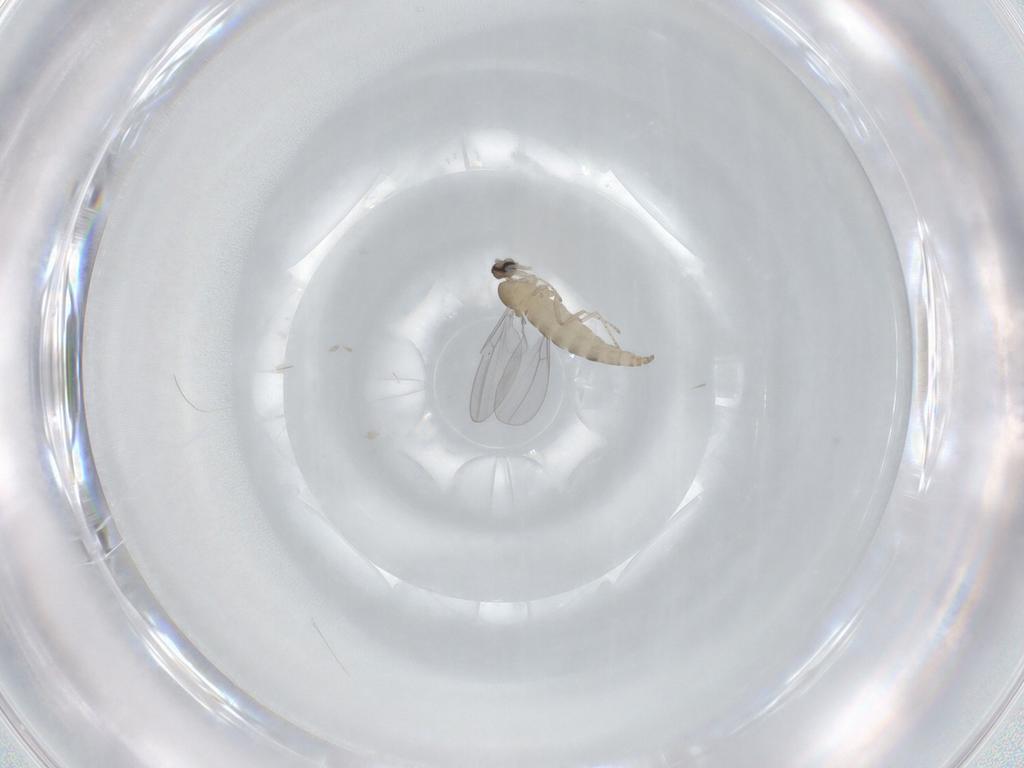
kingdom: Animalia
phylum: Arthropoda
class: Insecta
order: Diptera
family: Cecidomyiidae
